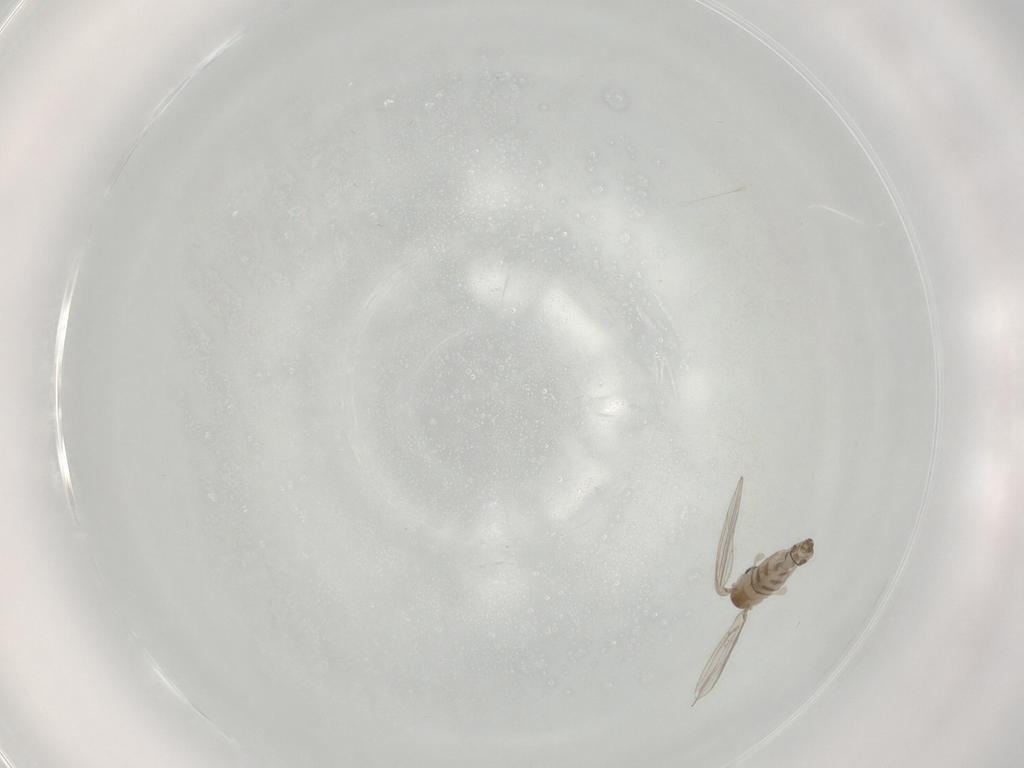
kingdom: Animalia
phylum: Arthropoda
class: Insecta
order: Diptera
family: Psychodidae
